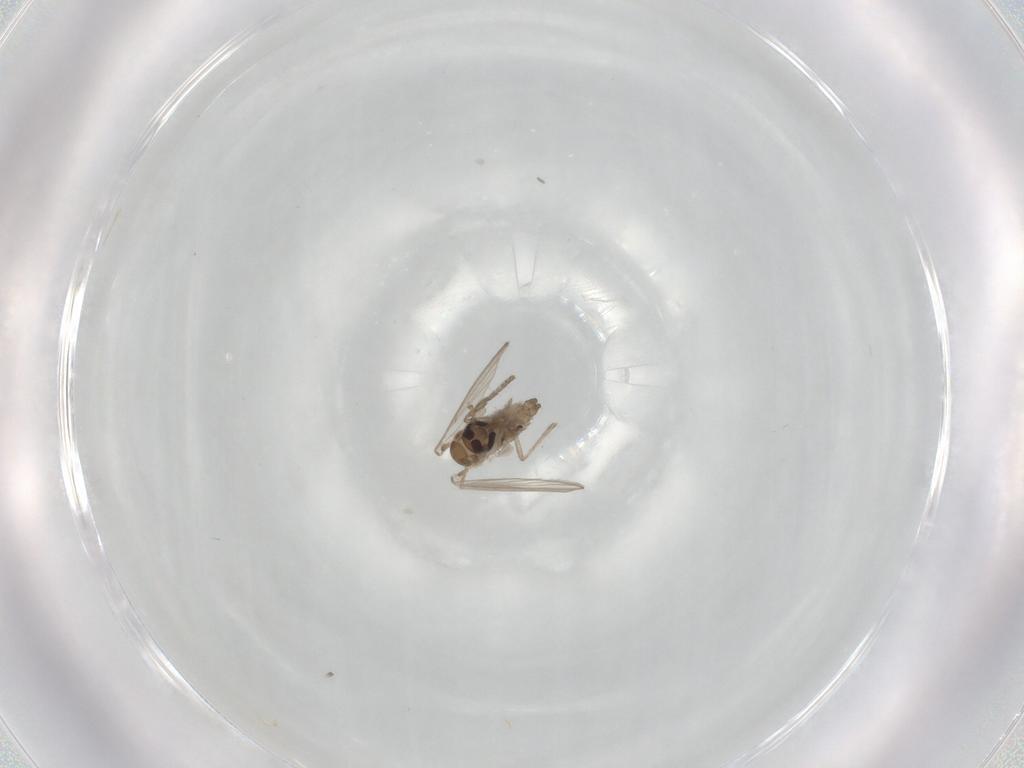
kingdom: Animalia
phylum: Arthropoda
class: Insecta
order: Diptera
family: Psychodidae
